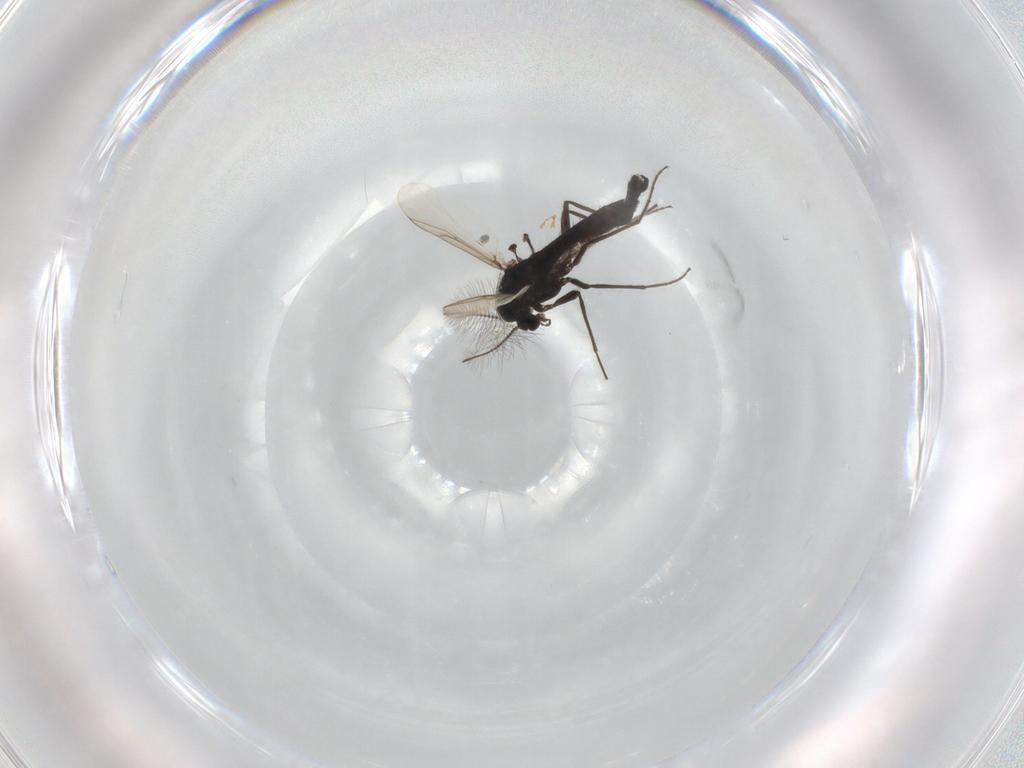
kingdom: Animalia
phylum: Arthropoda
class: Insecta
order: Diptera
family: Chironomidae
